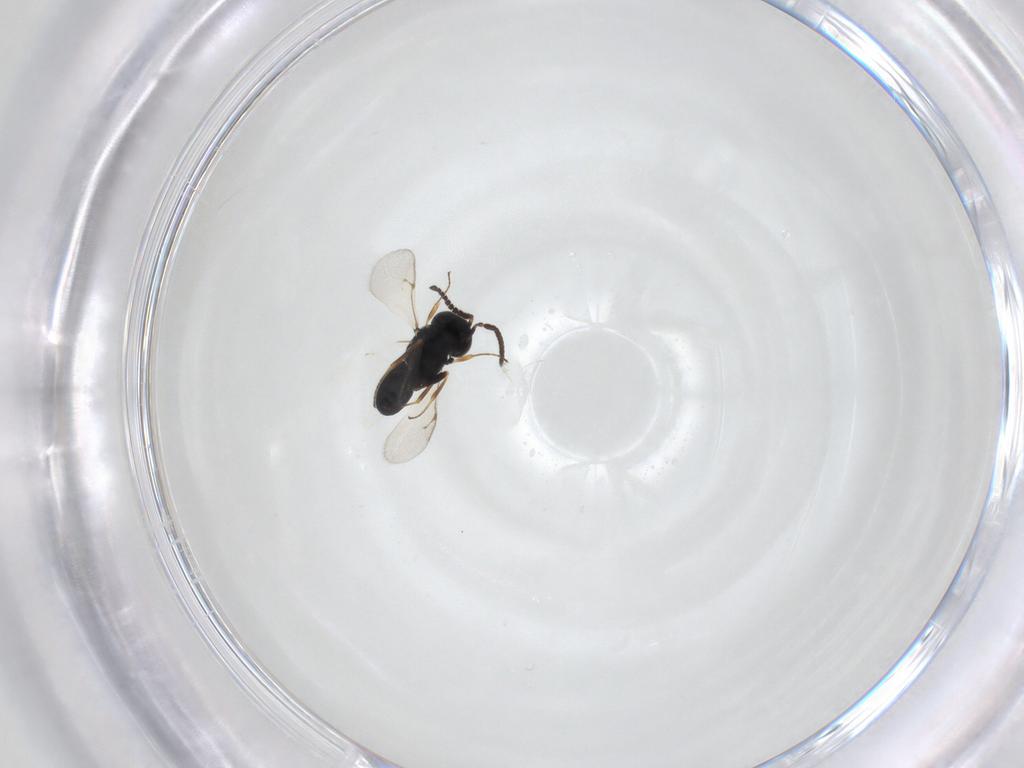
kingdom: Animalia
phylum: Arthropoda
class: Insecta
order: Hymenoptera
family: Scelionidae
